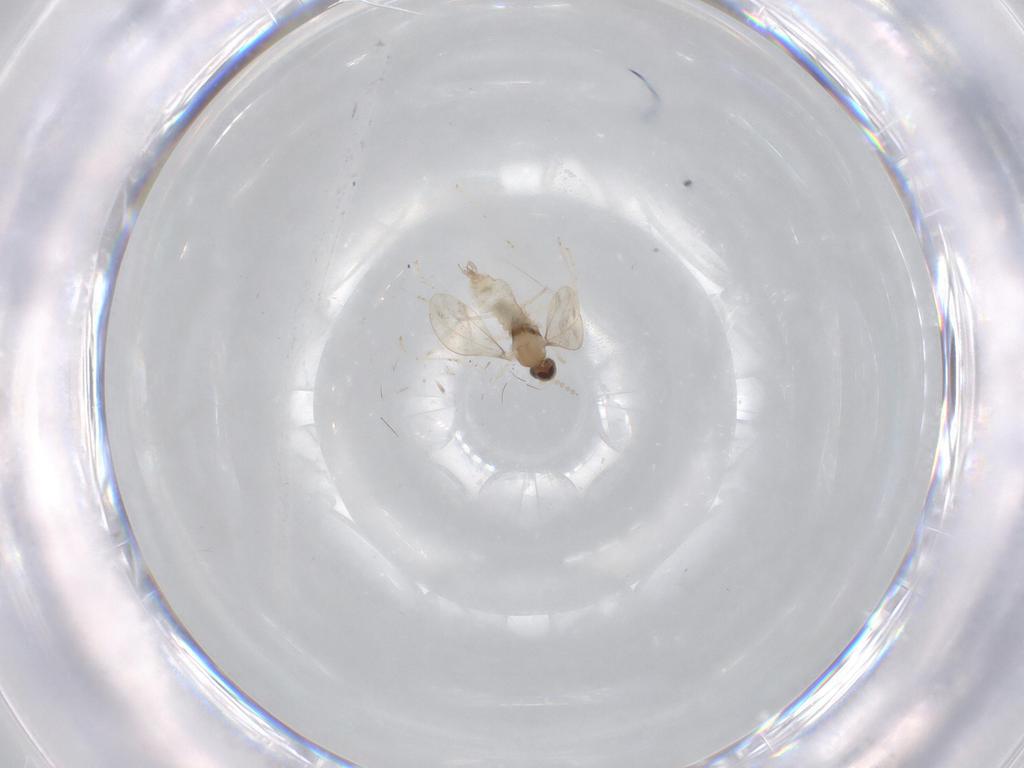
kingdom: Animalia
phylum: Arthropoda
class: Insecta
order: Diptera
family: Cecidomyiidae
